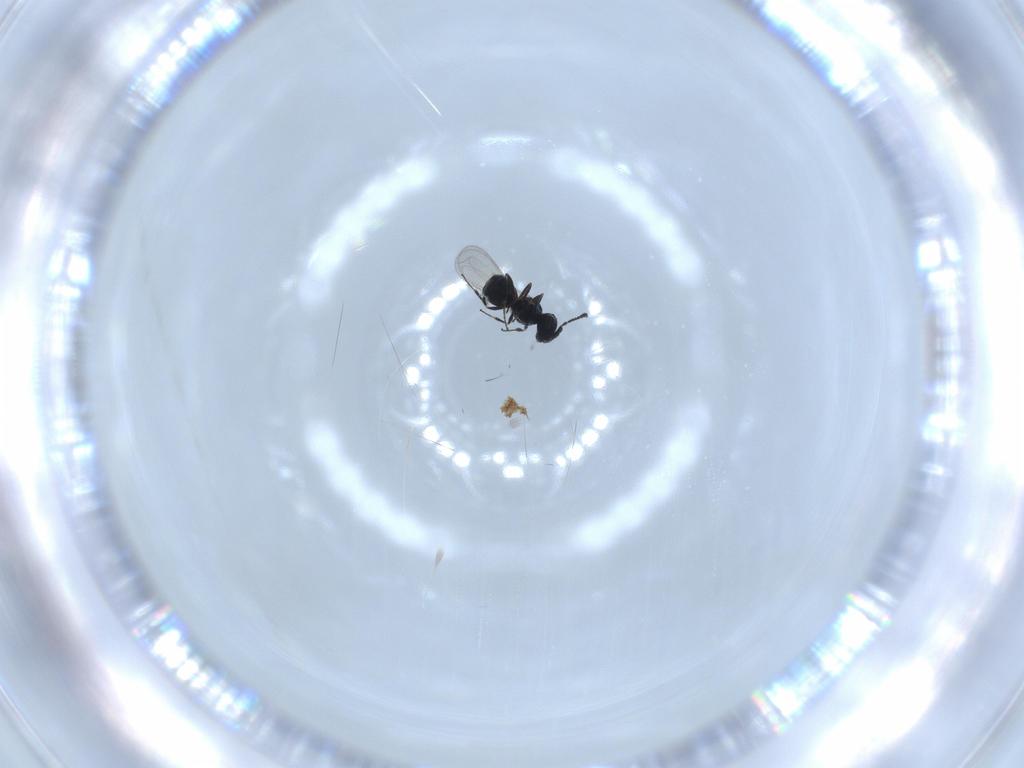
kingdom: Animalia
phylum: Arthropoda
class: Insecta
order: Hymenoptera
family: Scelionidae
